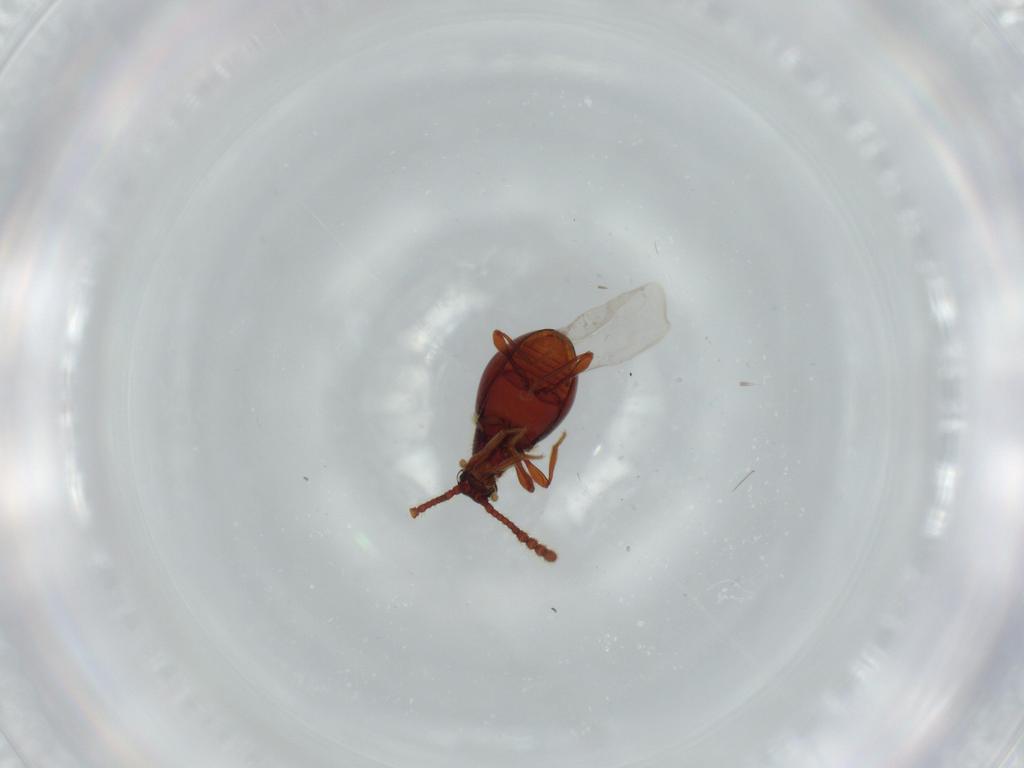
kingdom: Animalia
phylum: Arthropoda
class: Insecta
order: Coleoptera
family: Staphylinidae
